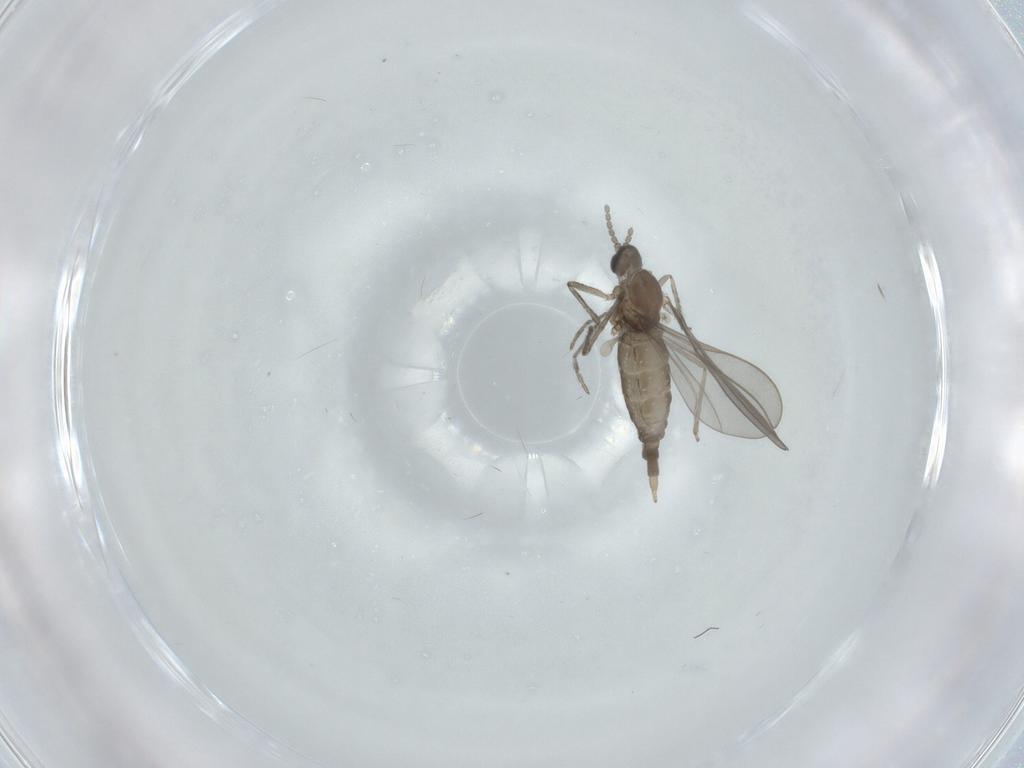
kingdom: Animalia
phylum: Arthropoda
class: Insecta
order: Diptera
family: Chironomidae
